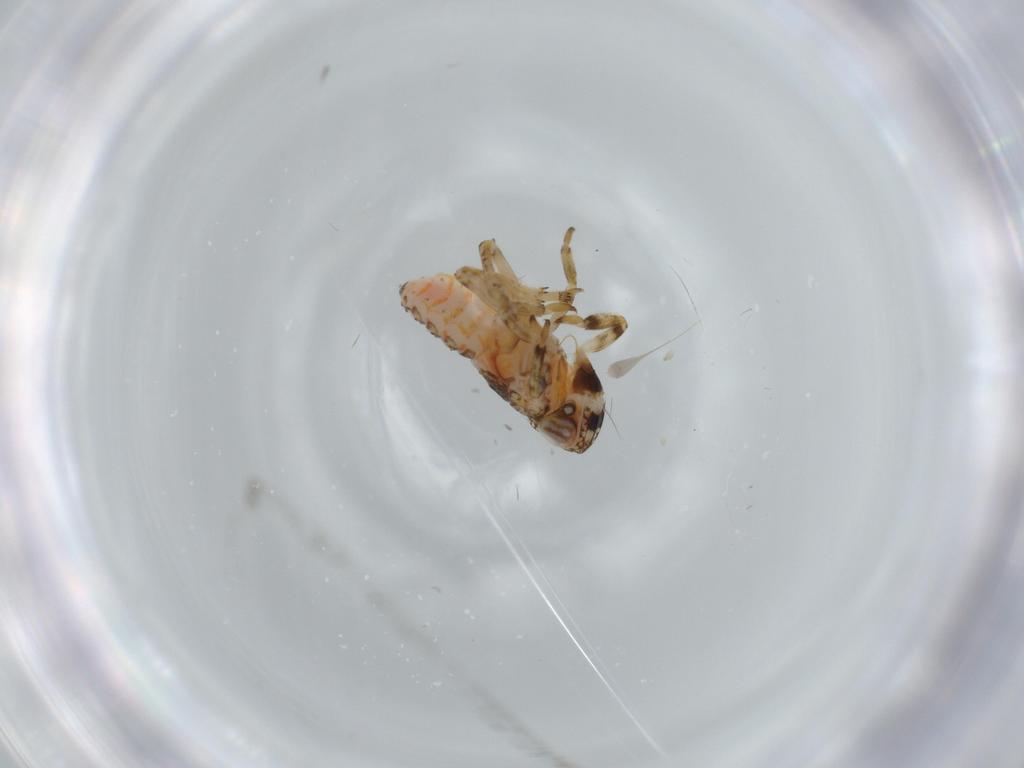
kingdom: Animalia
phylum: Arthropoda
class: Insecta
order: Hemiptera
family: Issidae
